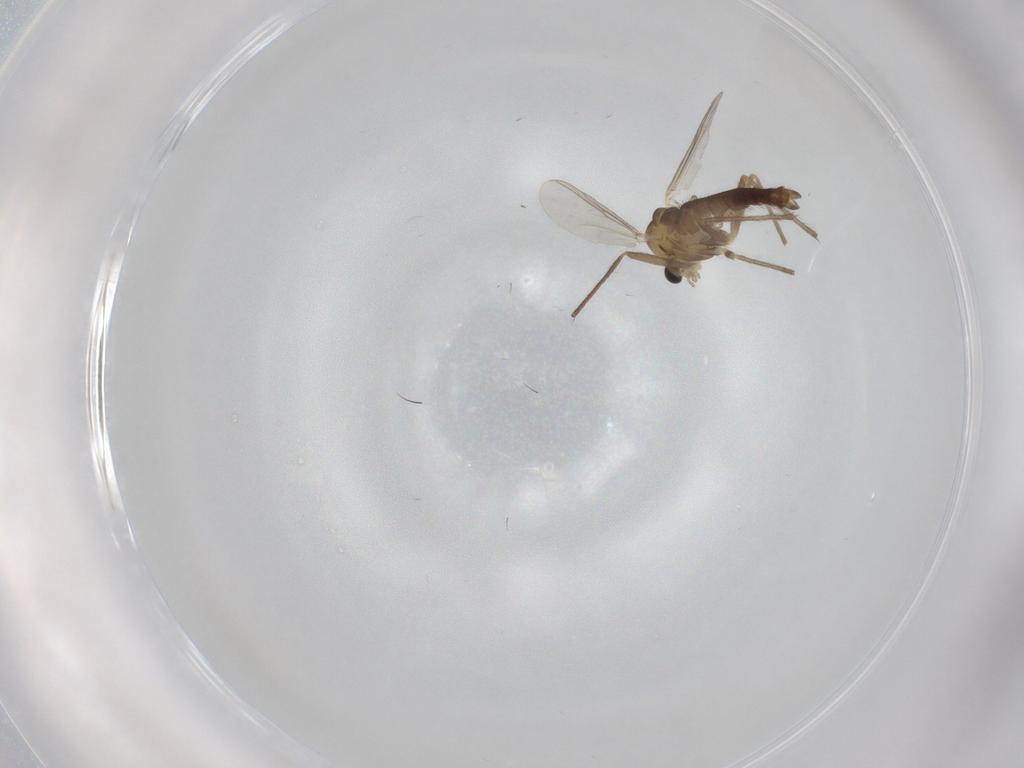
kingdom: Animalia
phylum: Arthropoda
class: Insecta
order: Diptera
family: Chironomidae
